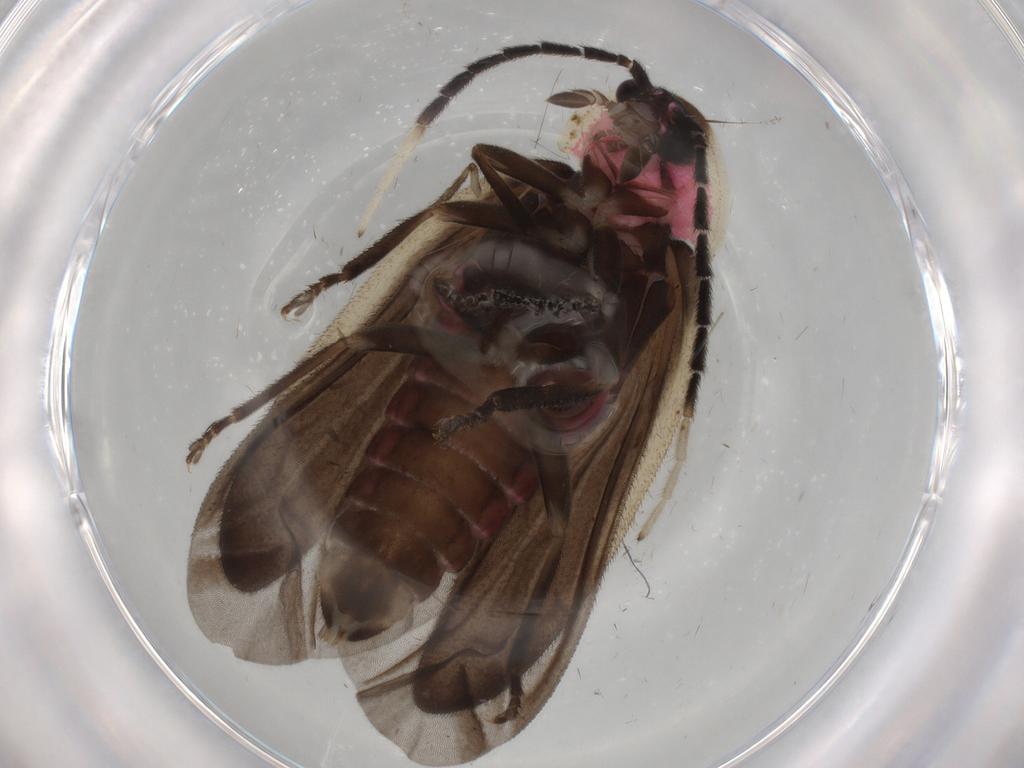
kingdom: Animalia
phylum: Arthropoda
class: Insecta
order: Coleoptera
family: Lampyridae
